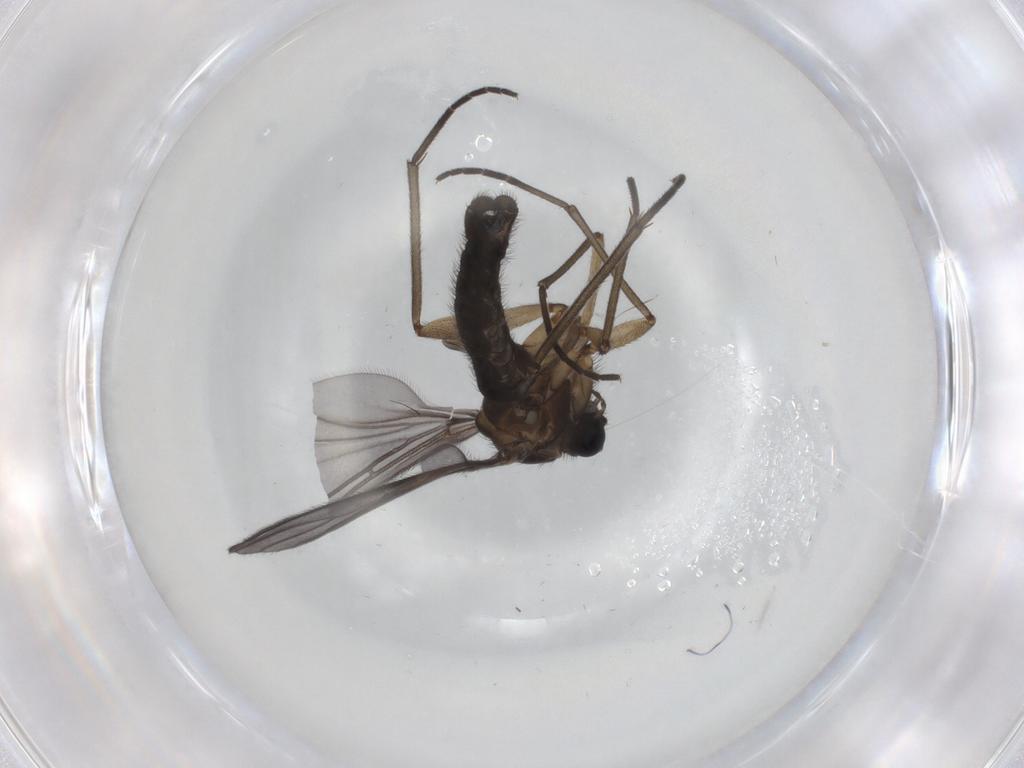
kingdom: Animalia
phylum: Arthropoda
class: Insecta
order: Diptera
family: Sciaridae
